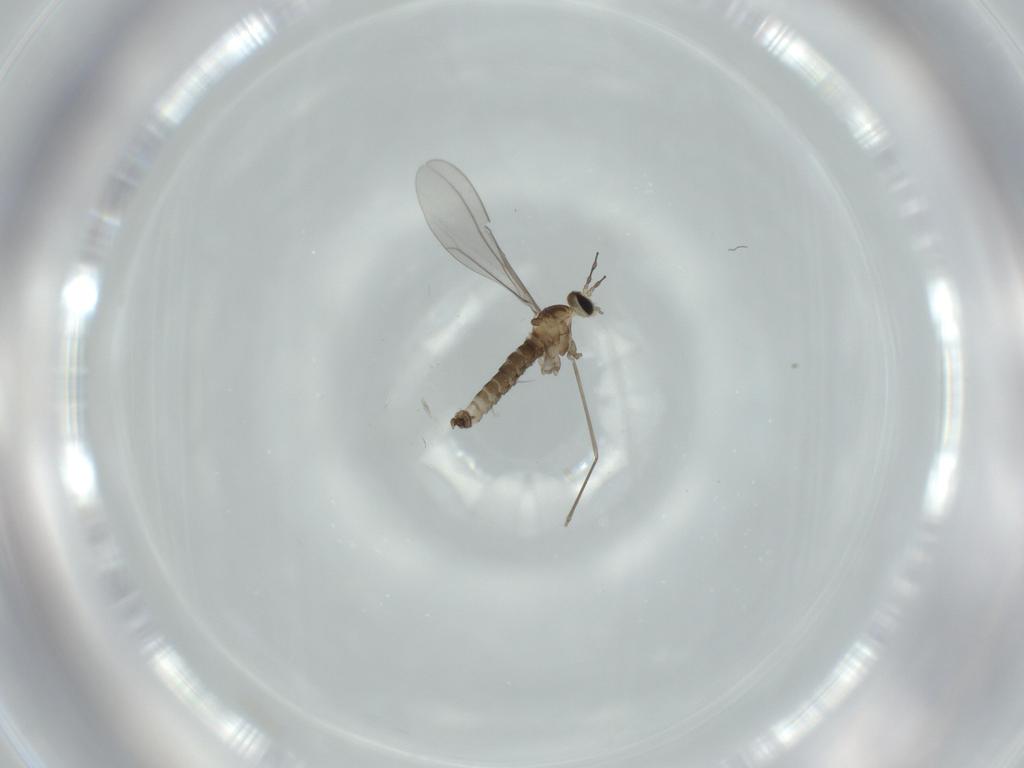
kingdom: Animalia
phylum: Arthropoda
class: Insecta
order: Diptera
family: Cecidomyiidae
